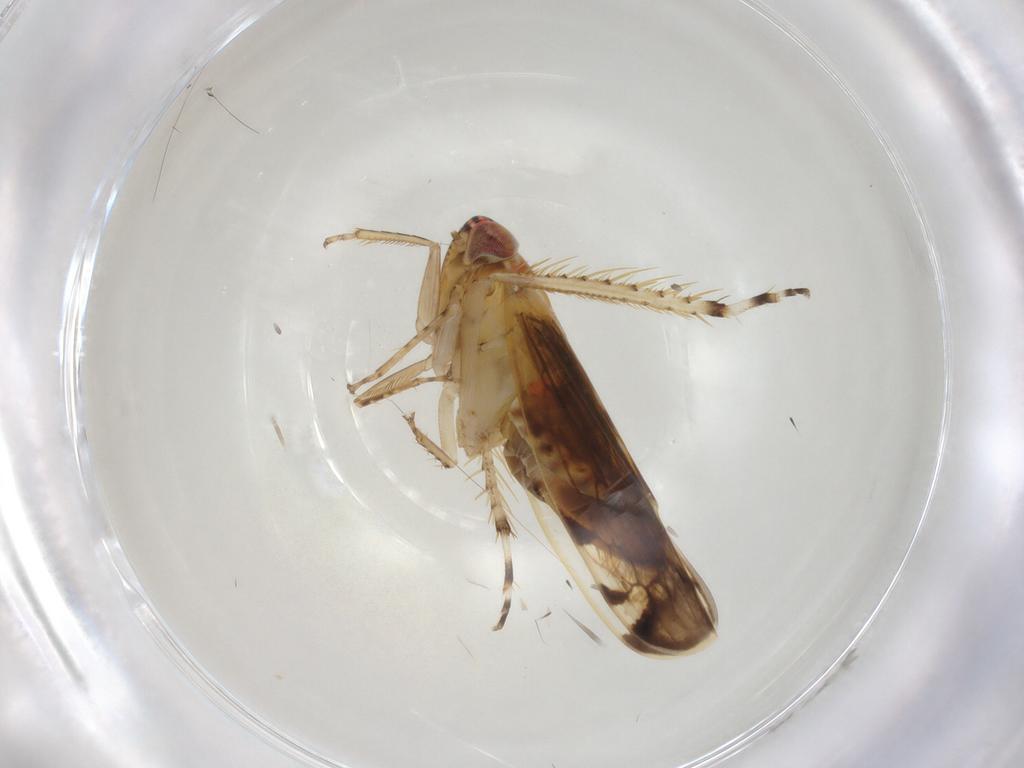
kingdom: Animalia
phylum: Arthropoda
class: Insecta
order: Hemiptera
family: Cicadellidae
